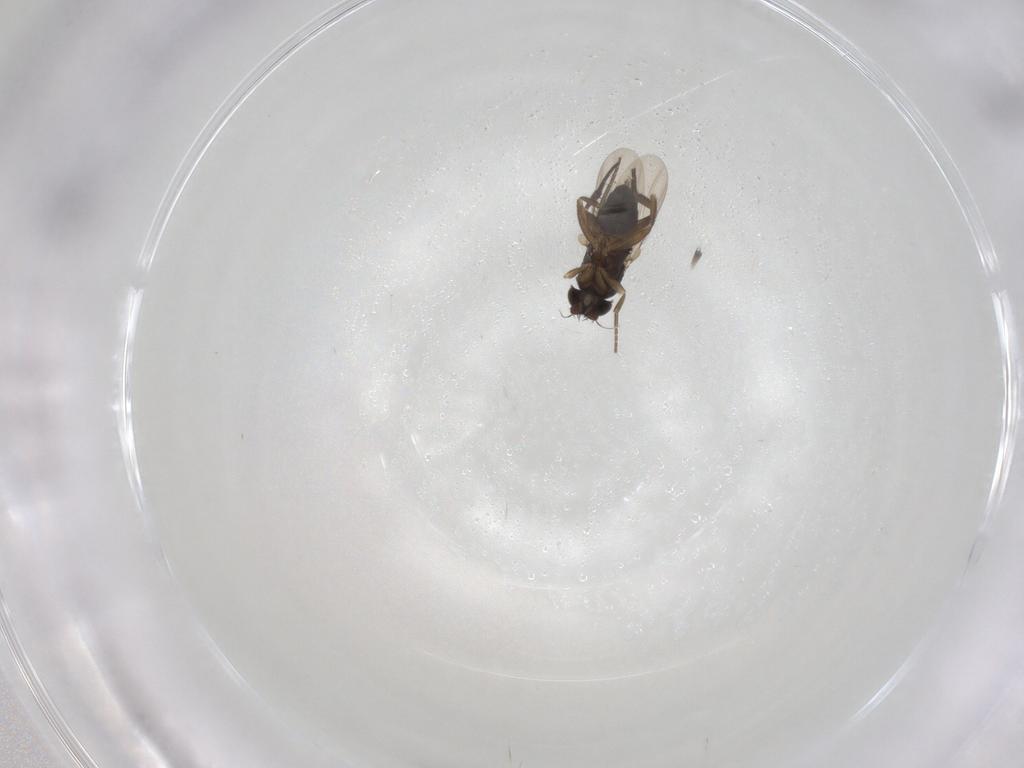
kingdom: Animalia
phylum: Arthropoda
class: Insecta
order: Diptera
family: Phoridae
